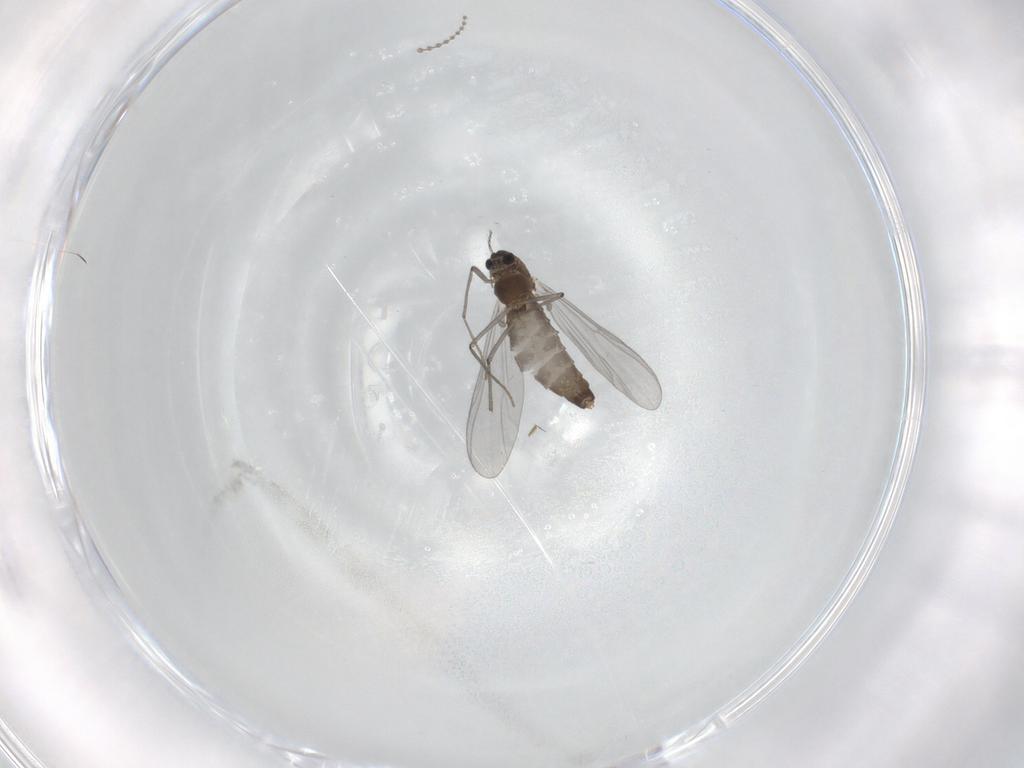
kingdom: Animalia
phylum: Arthropoda
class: Insecta
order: Diptera
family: Chironomidae
